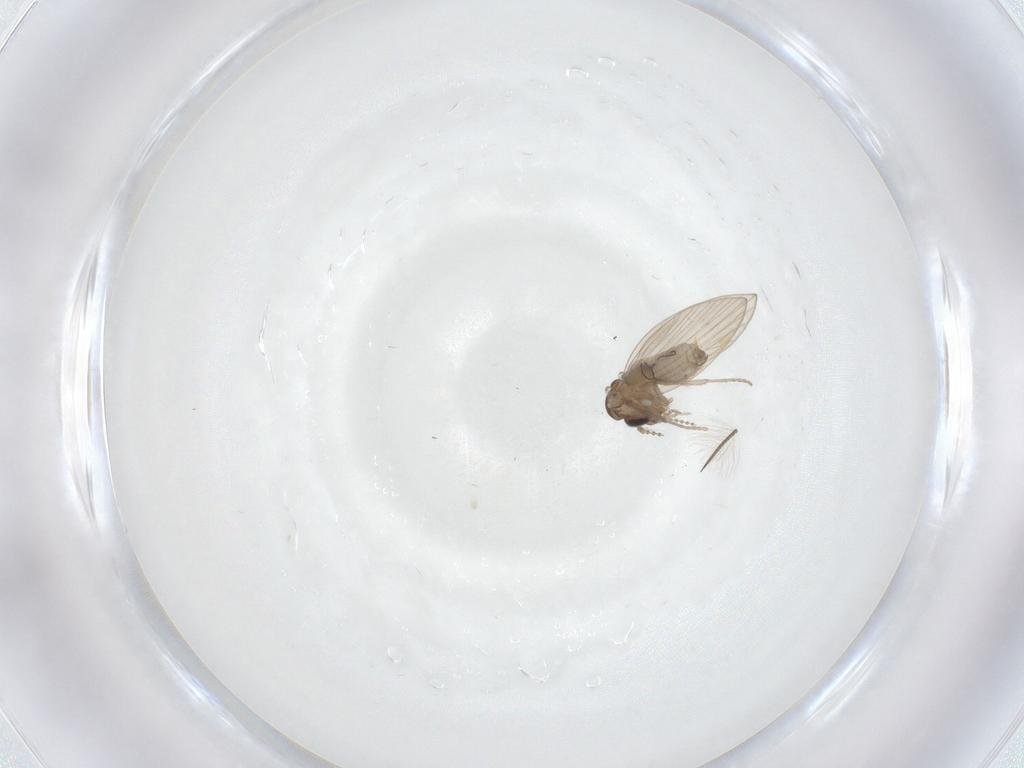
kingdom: Animalia
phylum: Arthropoda
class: Insecta
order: Diptera
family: Psychodidae
